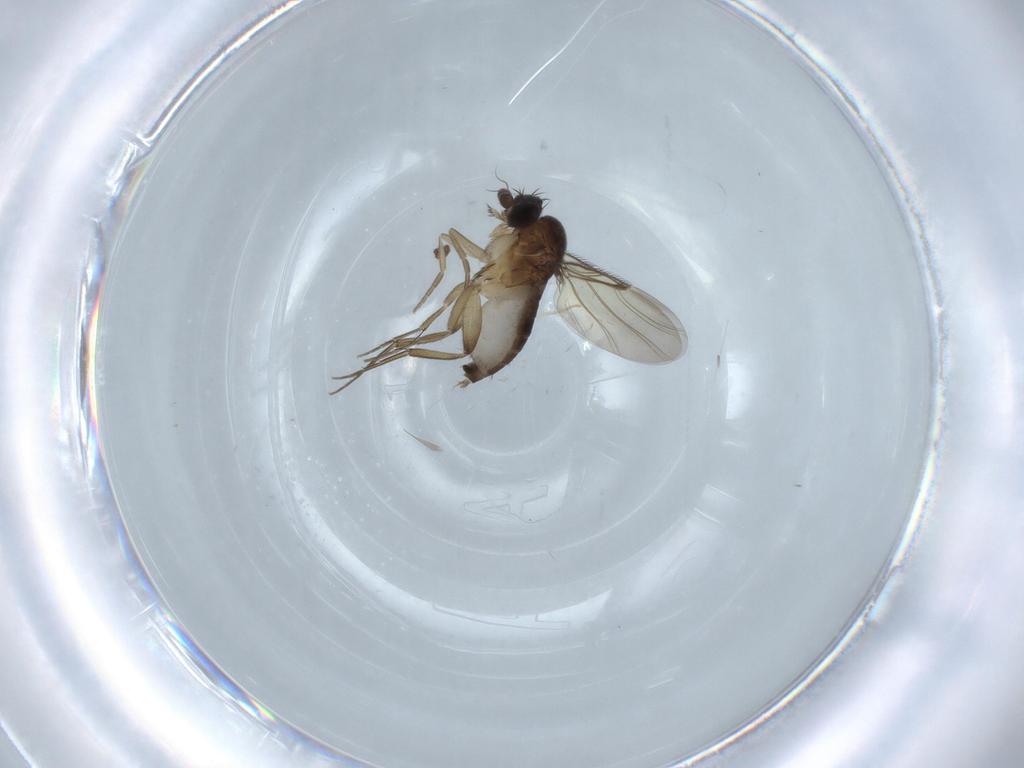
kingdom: Animalia
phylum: Arthropoda
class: Insecta
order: Diptera
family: Phoridae
